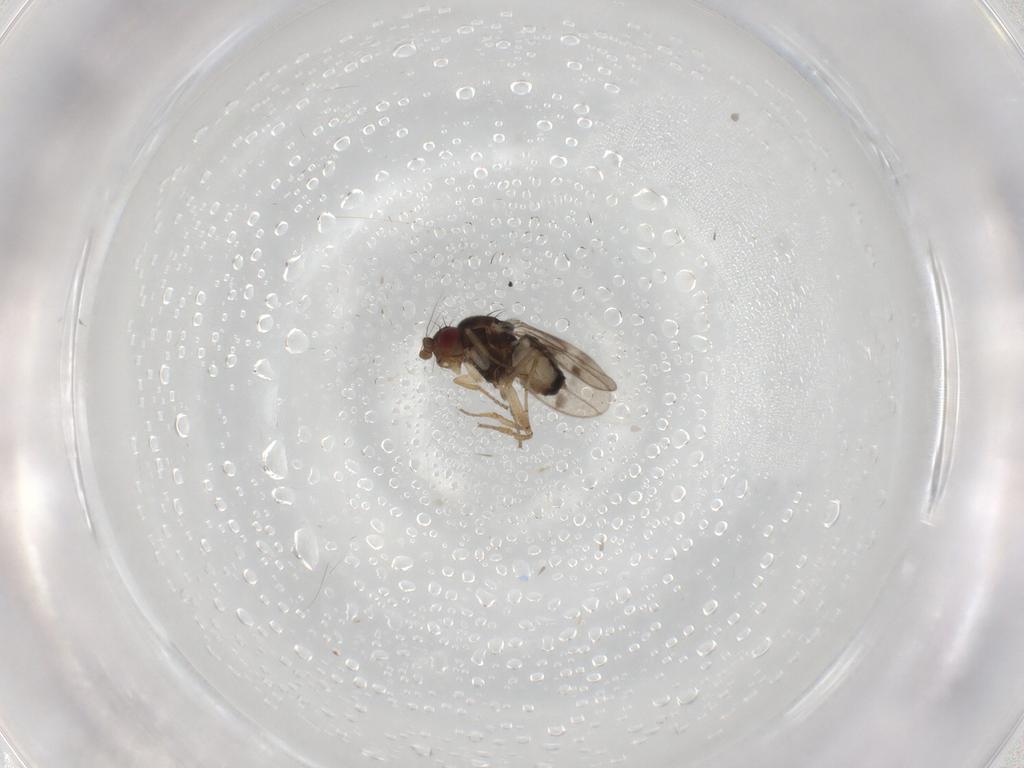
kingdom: Animalia
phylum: Arthropoda
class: Insecta
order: Diptera
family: Sphaeroceridae
